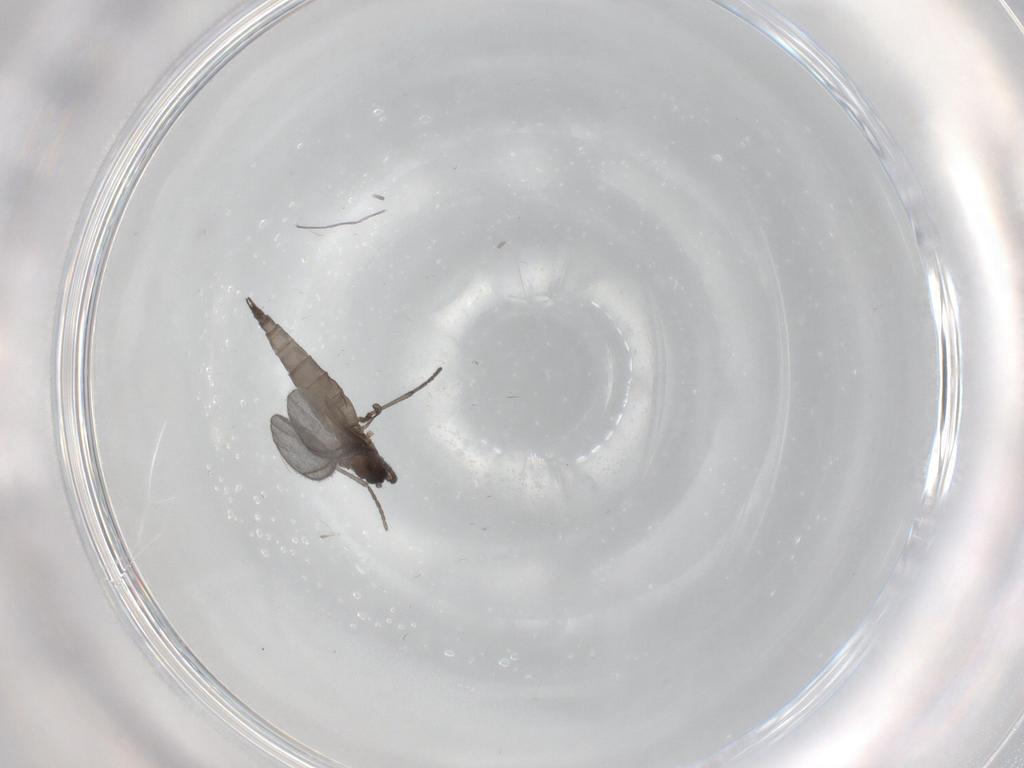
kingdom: Animalia
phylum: Arthropoda
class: Insecta
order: Diptera
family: Sciaridae
